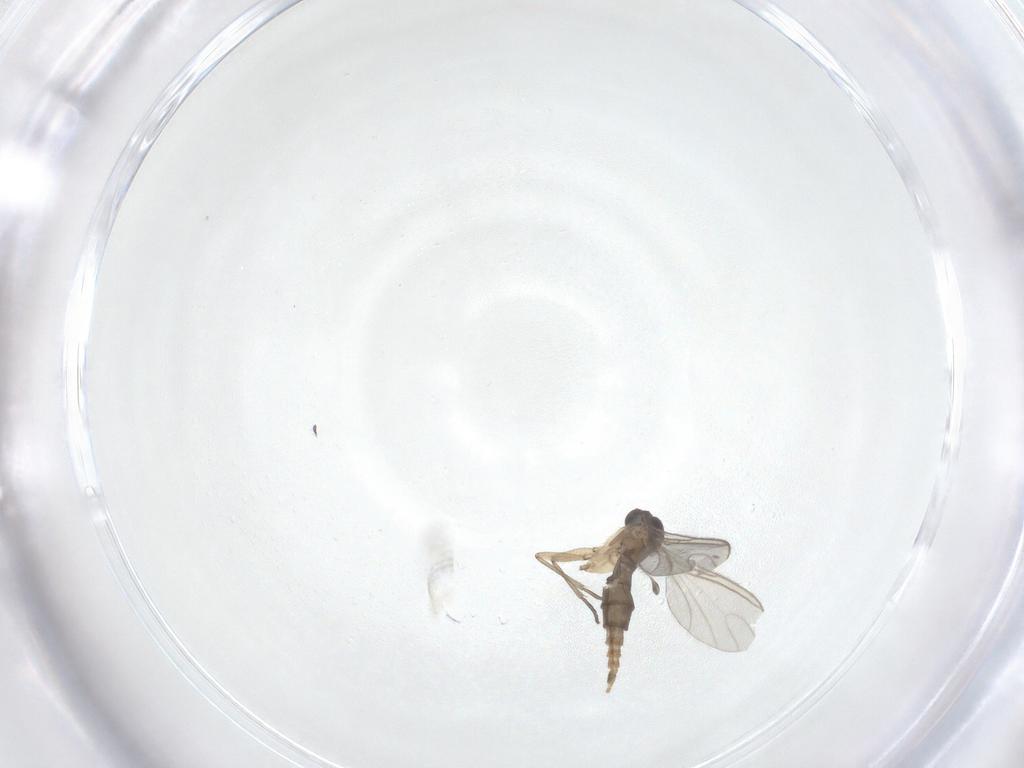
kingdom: Animalia
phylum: Arthropoda
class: Insecta
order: Diptera
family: Sciaridae
